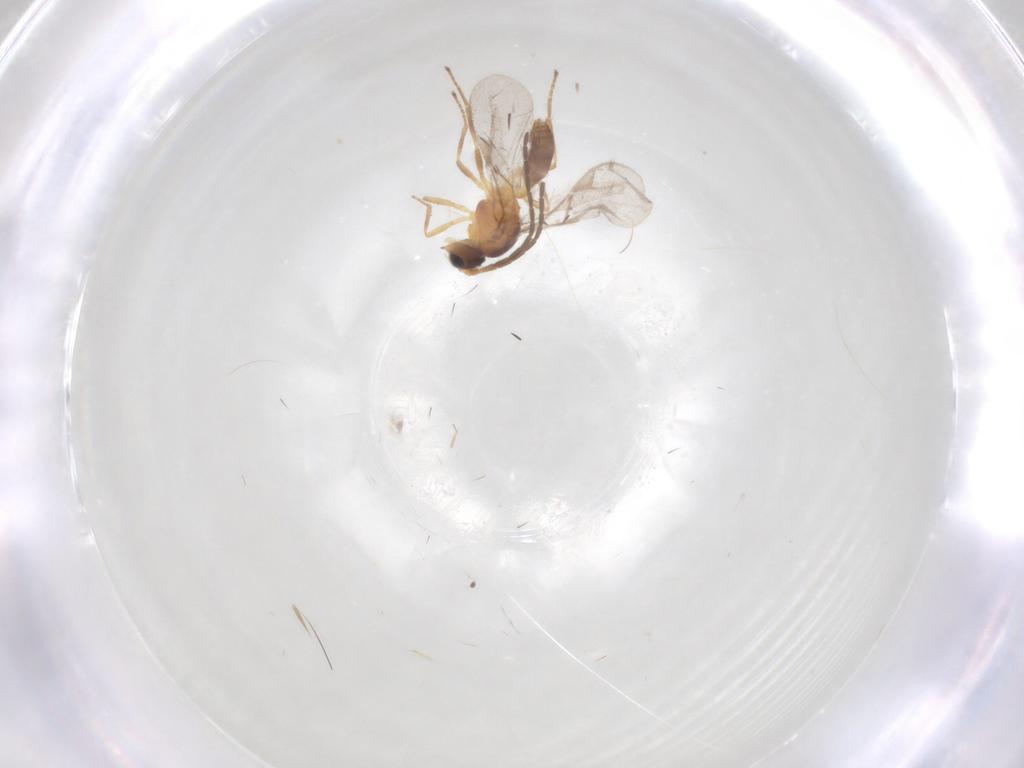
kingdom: Animalia
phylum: Arthropoda
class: Insecta
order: Hymenoptera
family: Braconidae
